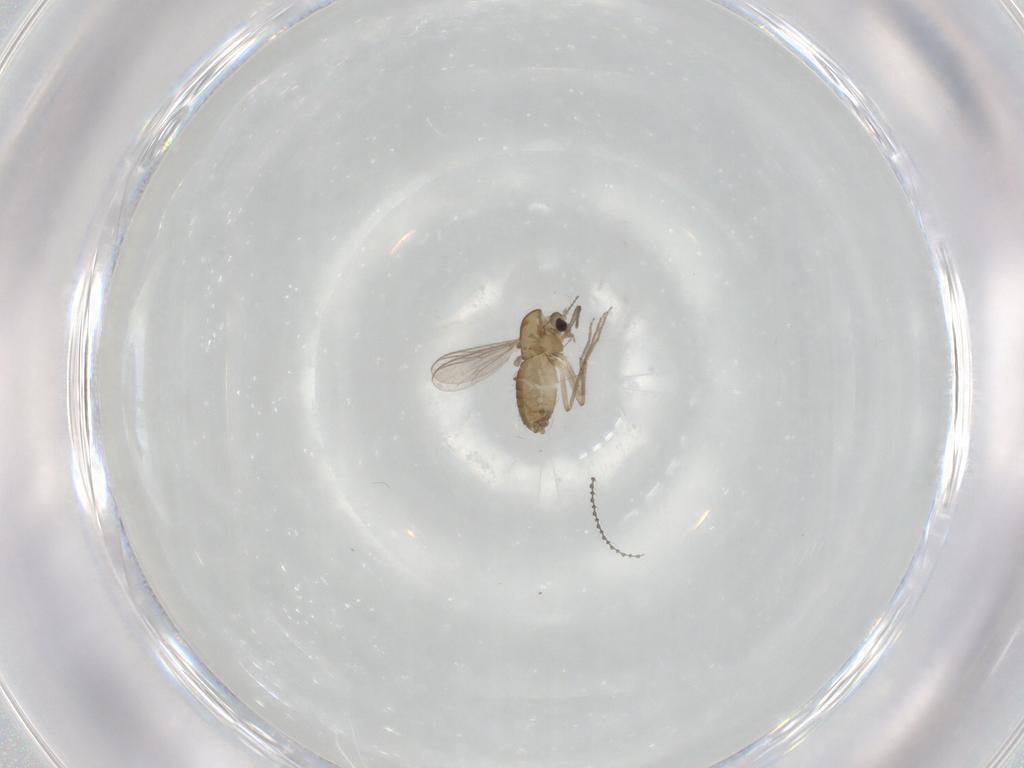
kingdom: Animalia
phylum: Arthropoda
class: Insecta
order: Diptera
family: Chironomidae
